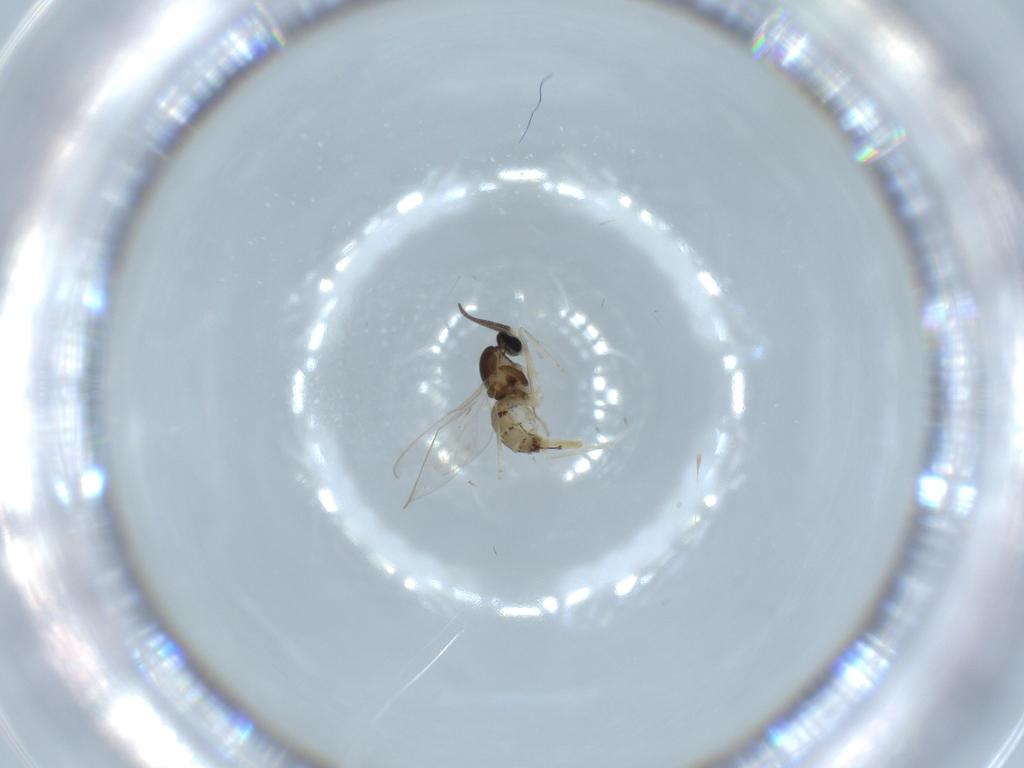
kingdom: Animalia
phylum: Arthropoda
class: Insecta
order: Diptera
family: Cecidomyiidae
